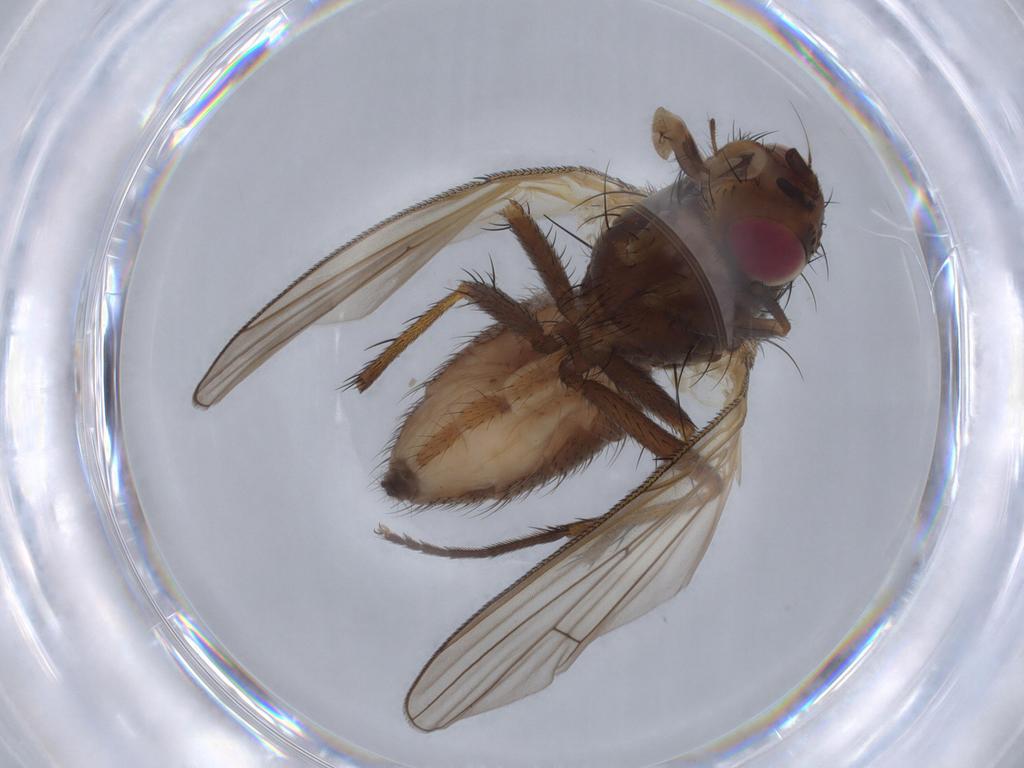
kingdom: Animalia
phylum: Arthropoda
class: Insecta
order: Diptera
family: Anthomyiidae
